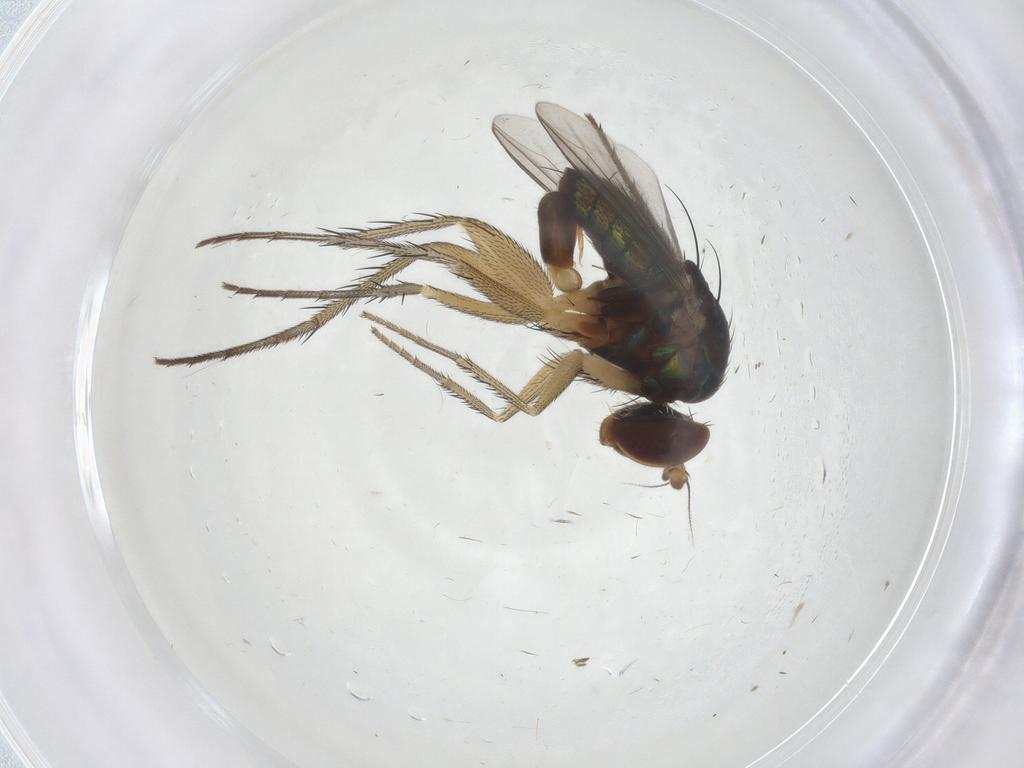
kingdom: Animalia
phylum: Arthropoda
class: Insecta
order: Diptera
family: Dolichopodidae
